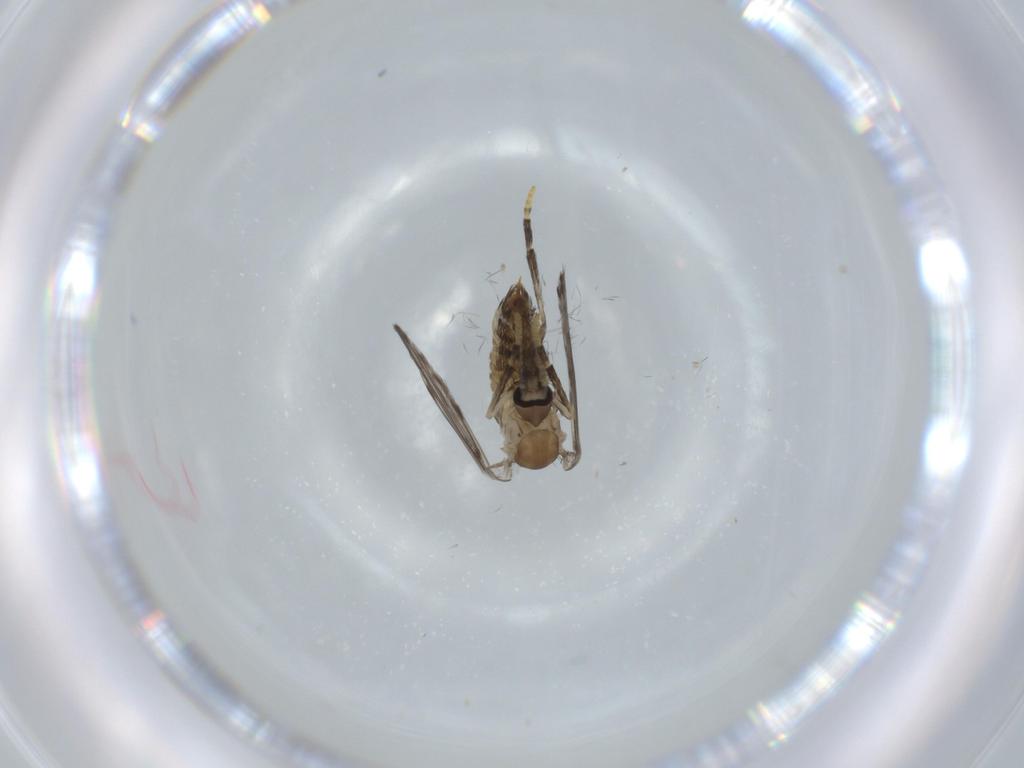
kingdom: Animalia
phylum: Arthropoda
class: Insecta
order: Diptera
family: Psychodidae
